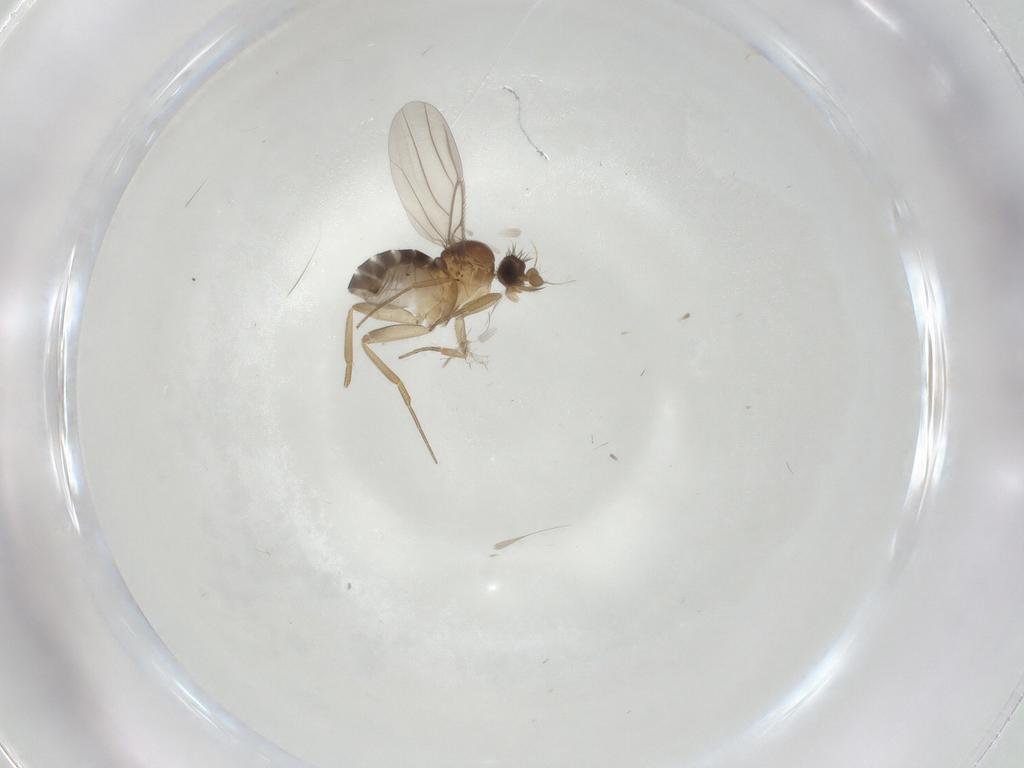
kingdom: Animalia
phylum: Arthropoda
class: Insecta
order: Diptera
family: Phoridae
